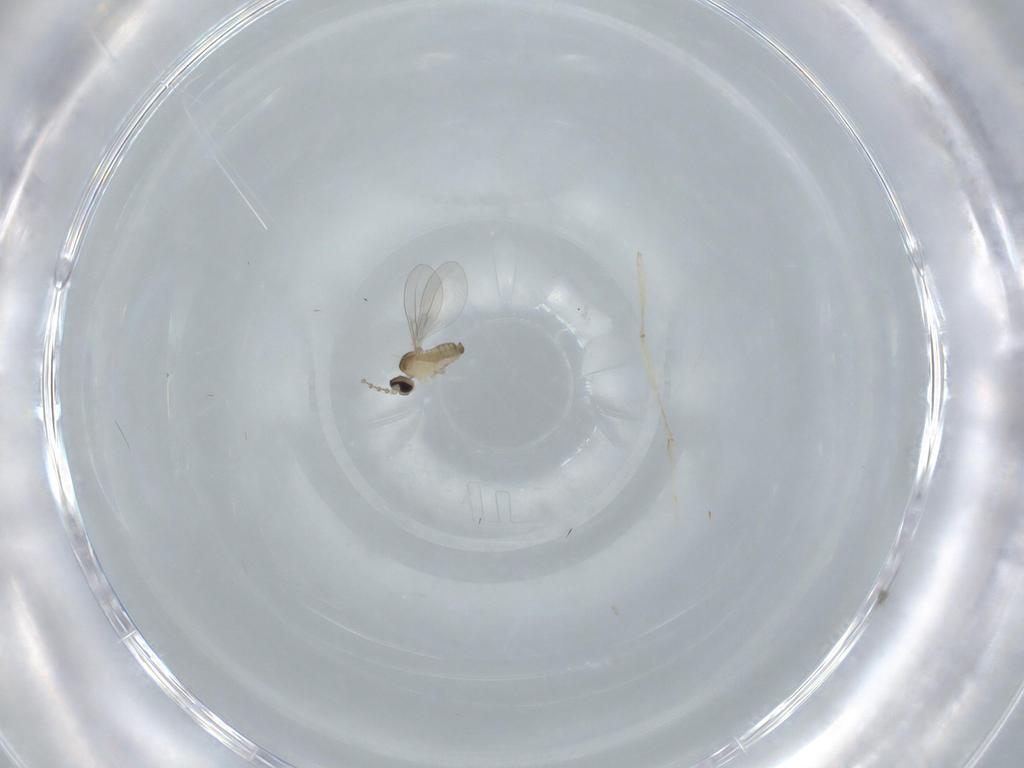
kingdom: Animalia
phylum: Arthropoda
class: Insecta
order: Diptera
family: Cecidomyiidae
